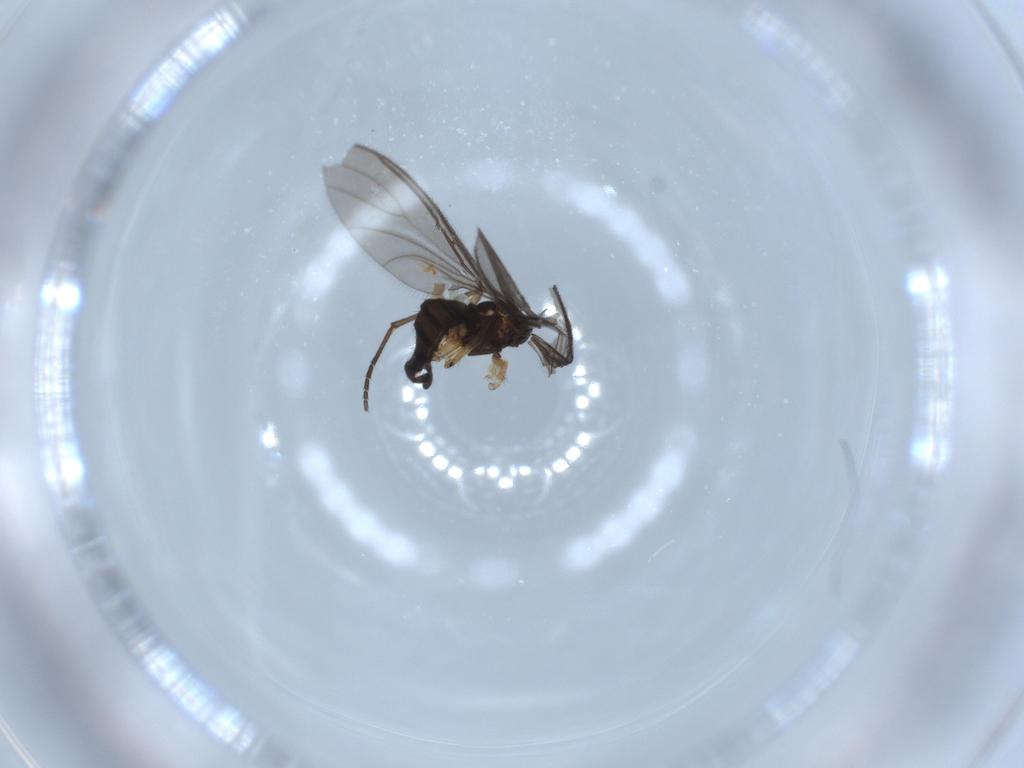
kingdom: Animalia
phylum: Arthropoda
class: Insecta
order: Diptera
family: Sciaridae
